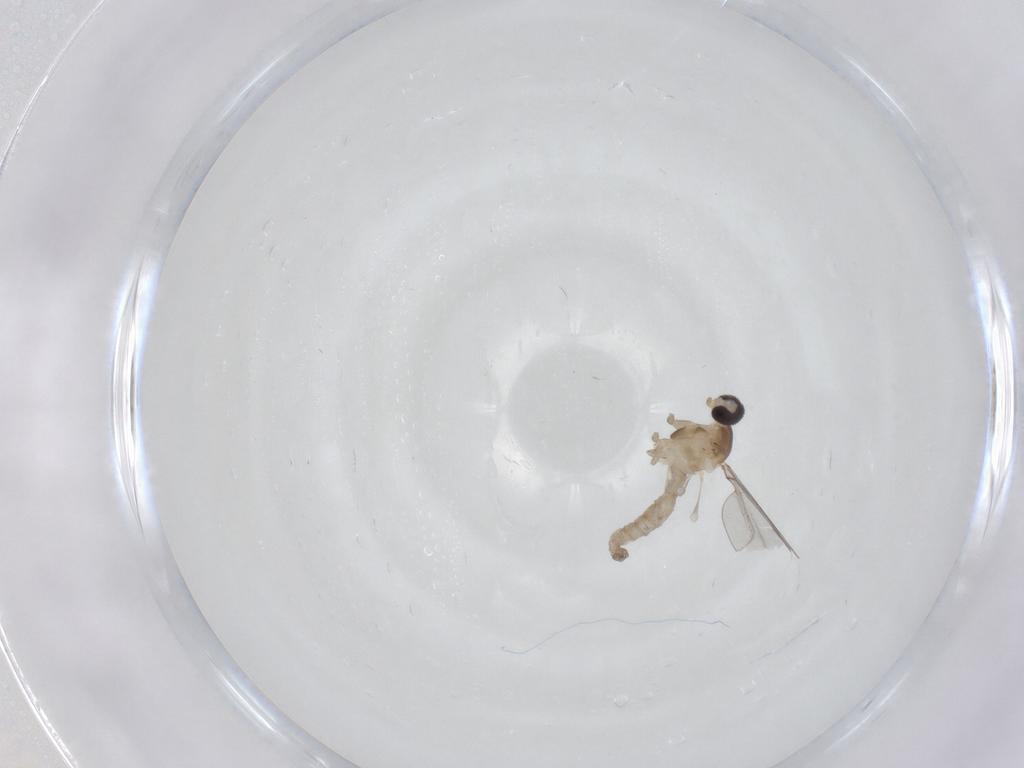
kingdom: Animalia
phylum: Arthropoda
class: Insecta
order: Diptera
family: Cecidomyiidae
